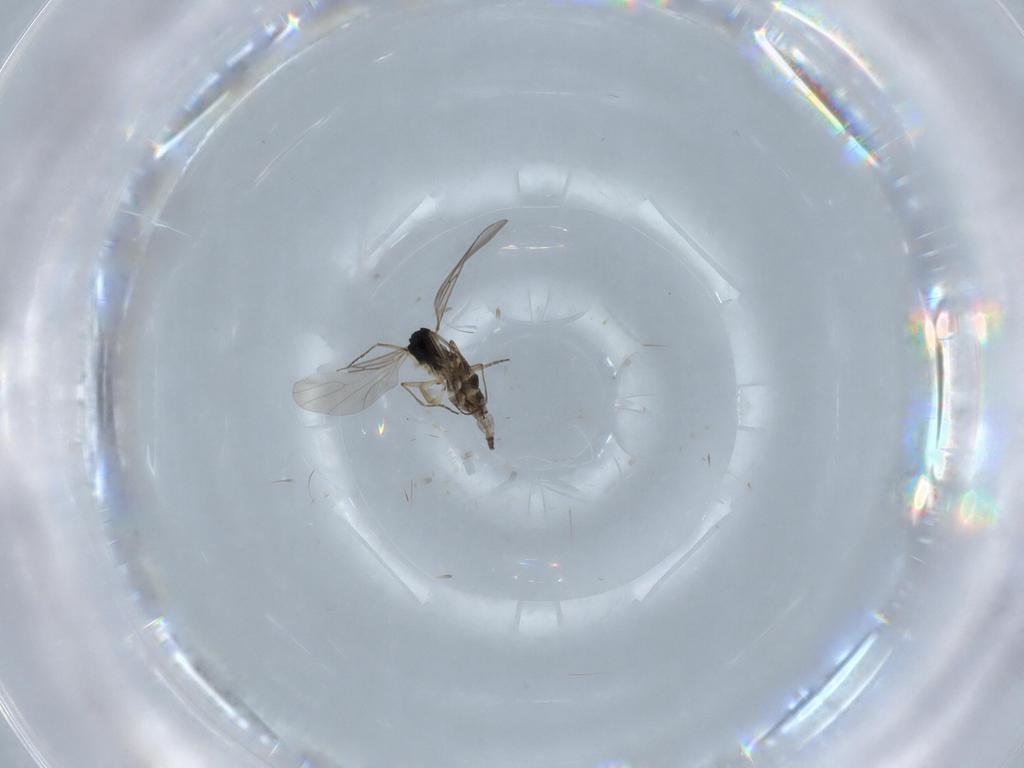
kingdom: Animalia
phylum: Arthropoda
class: Insecta
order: Diptera
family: Sciaridae
